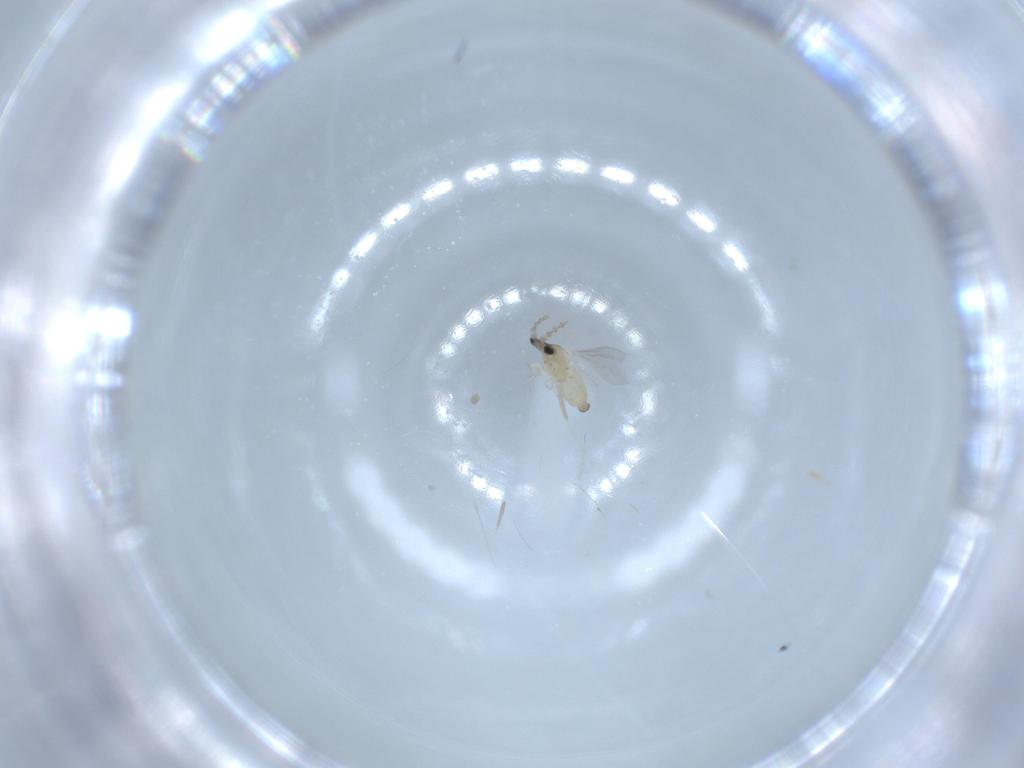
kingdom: Animalia
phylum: Arthropoda
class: Insecta
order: Diptera
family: Cecidomyiidae
